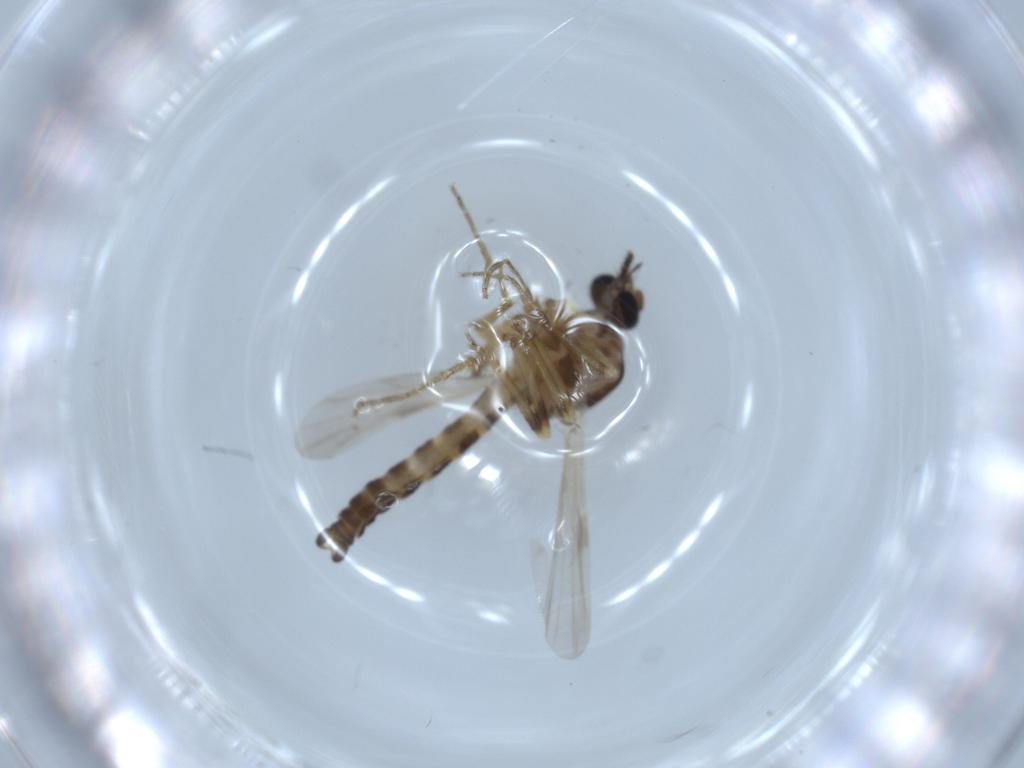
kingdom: Animalia
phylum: Arthropoda
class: Insecta
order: Diptera
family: Ceratopogonidae
